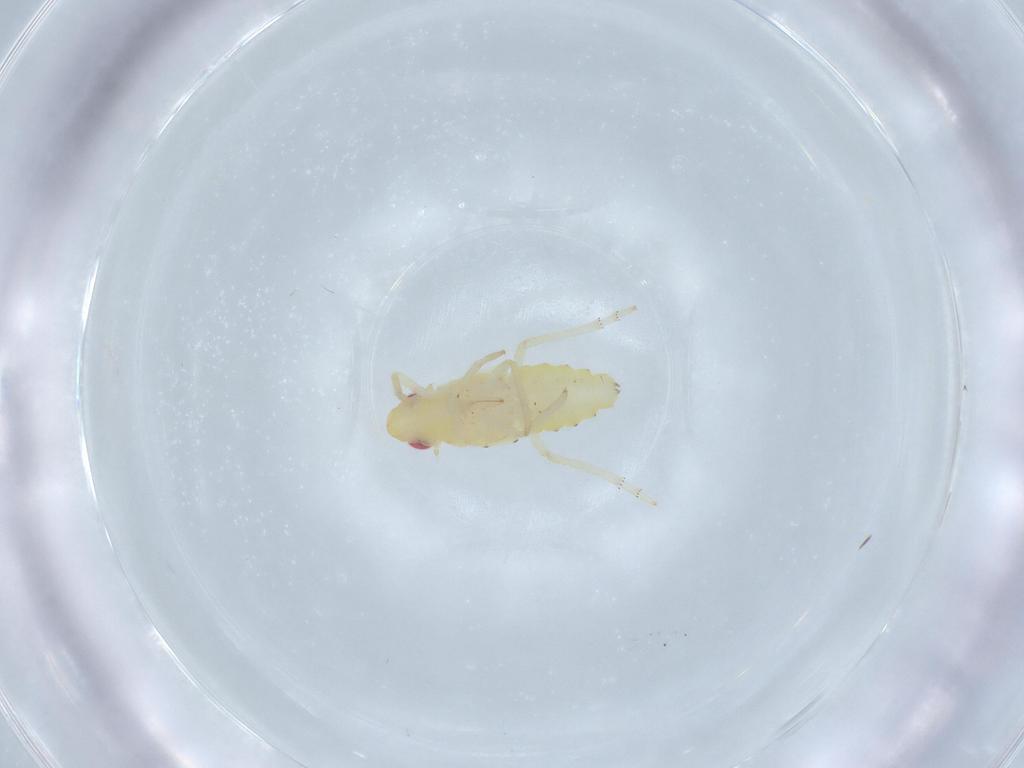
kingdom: Animalia
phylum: Arthropoda
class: Insecta
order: Hemiptera
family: Tropiduchidae
